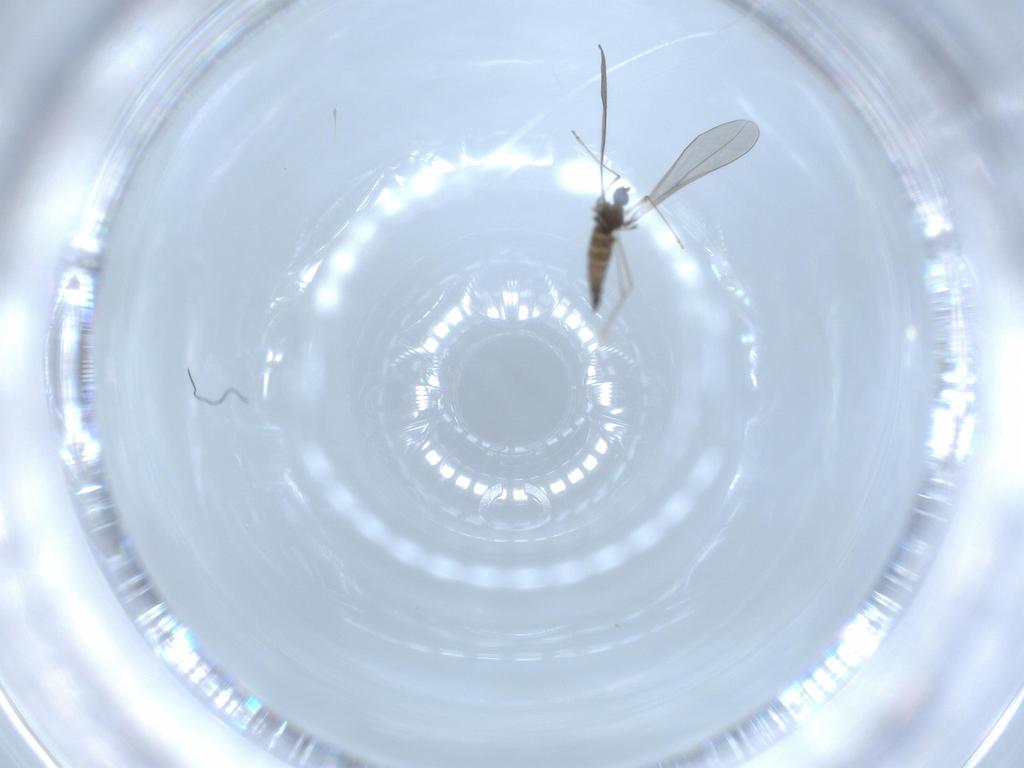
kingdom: Animalia
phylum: Arthropoda
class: Insecta
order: Diptera
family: Cecidomyiidae
